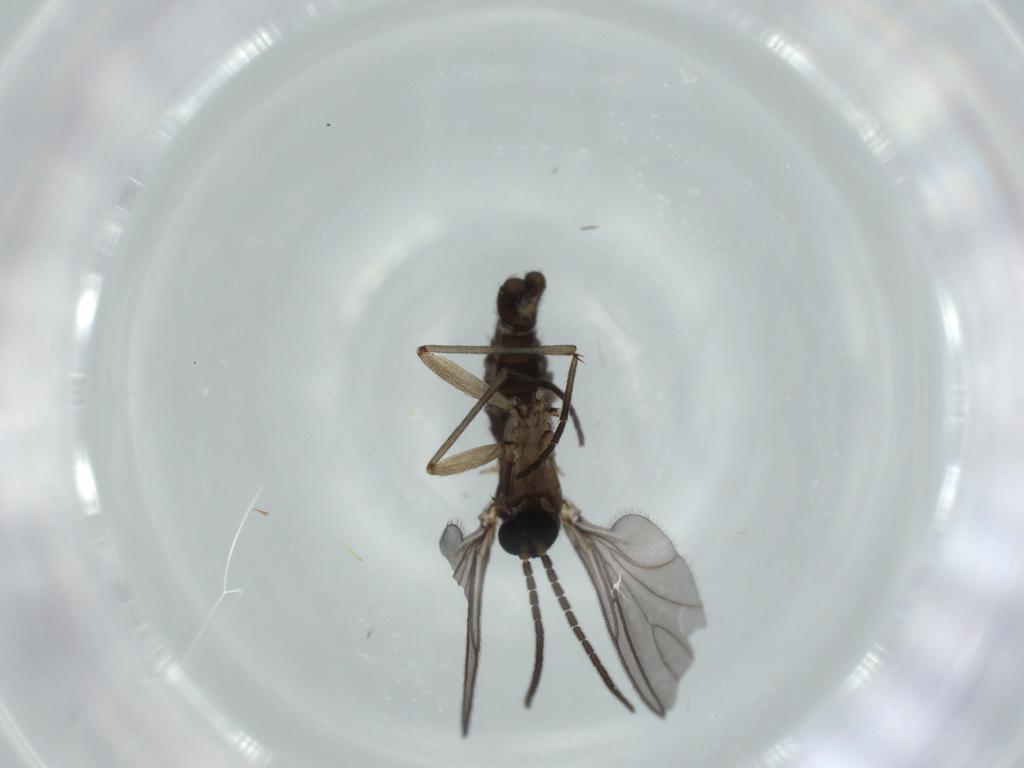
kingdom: Animalia
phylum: Arthropoda
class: Insecta
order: Diptera
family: Sciaridae
